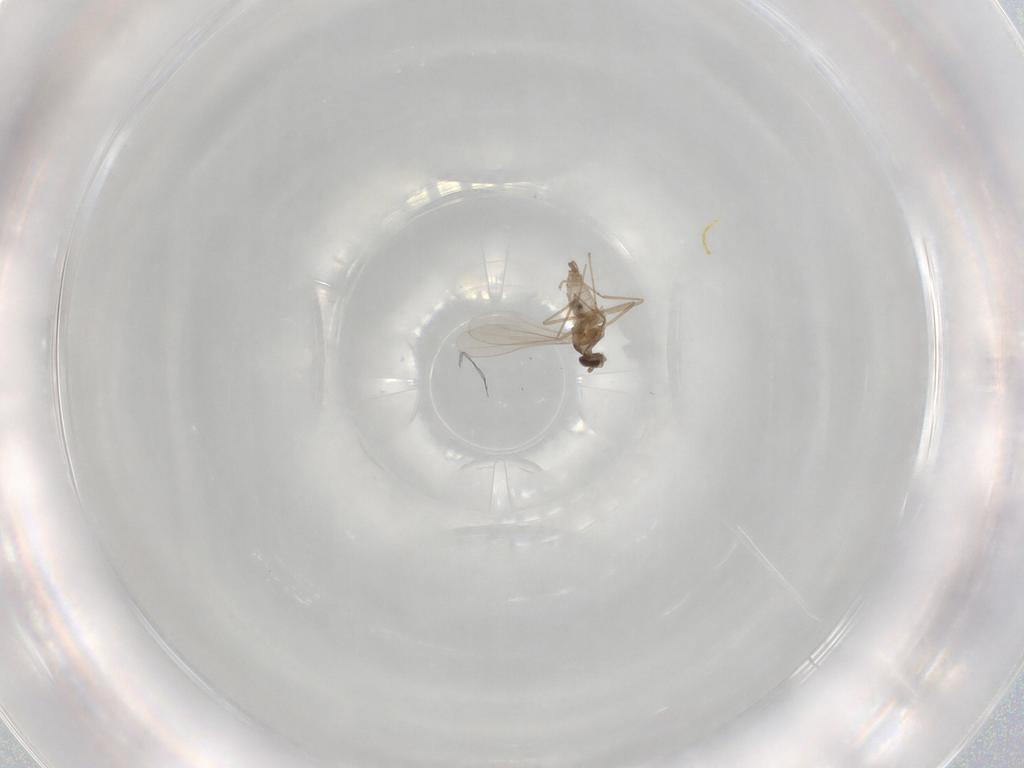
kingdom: Animalia
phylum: Arthropoda
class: Insecta
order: Diptera
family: Cecidomyiidae
